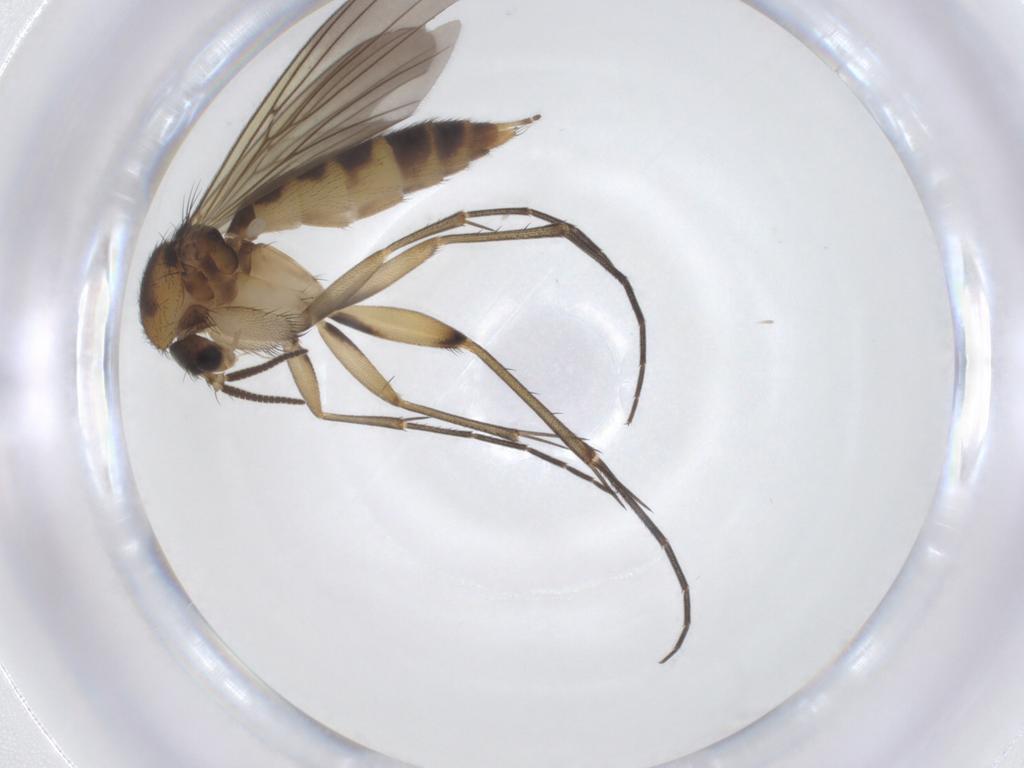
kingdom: Animalia
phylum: Arthropoda
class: Insecta
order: Diptera
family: Mycetophilidae
